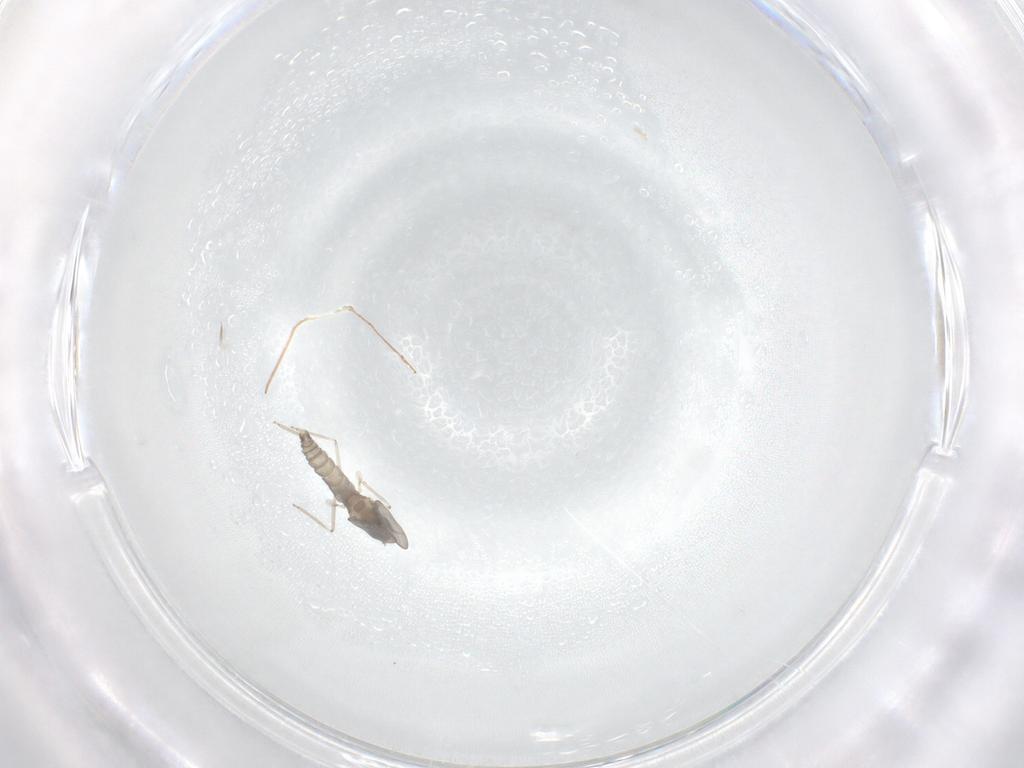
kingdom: Animalia
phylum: Arthropoda
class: Insecta
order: Diptera
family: Cecidomyiidae
